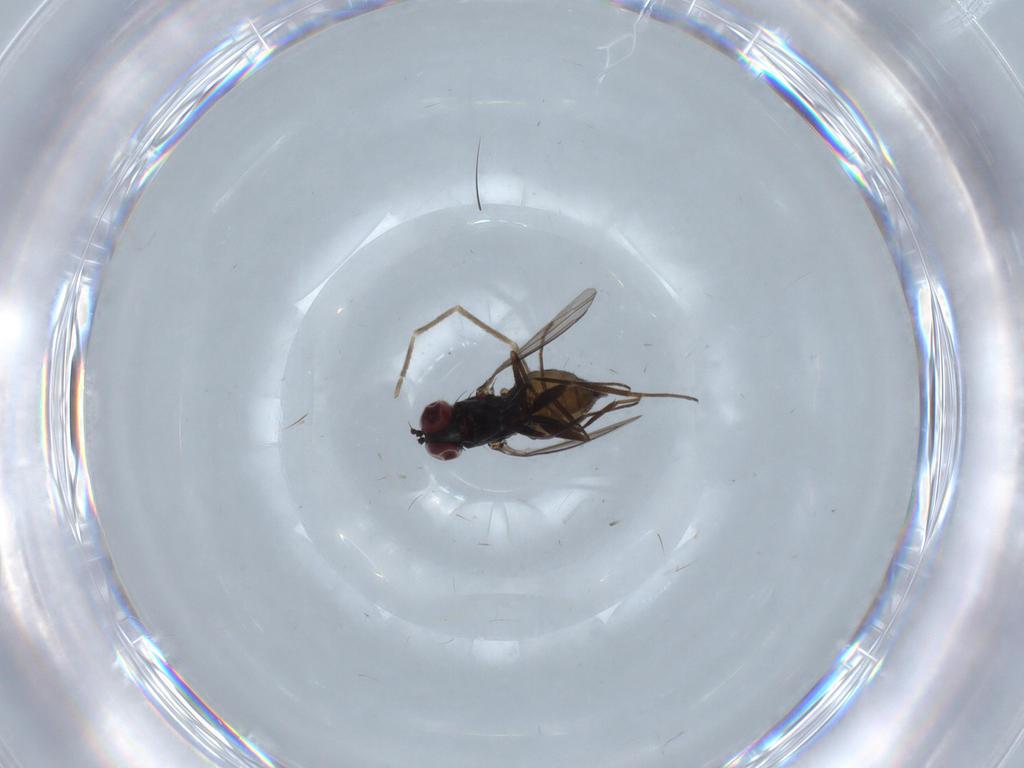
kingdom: Animalia
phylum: Arthropoda
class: Insecta
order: Diptera
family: Dolichopodidae
